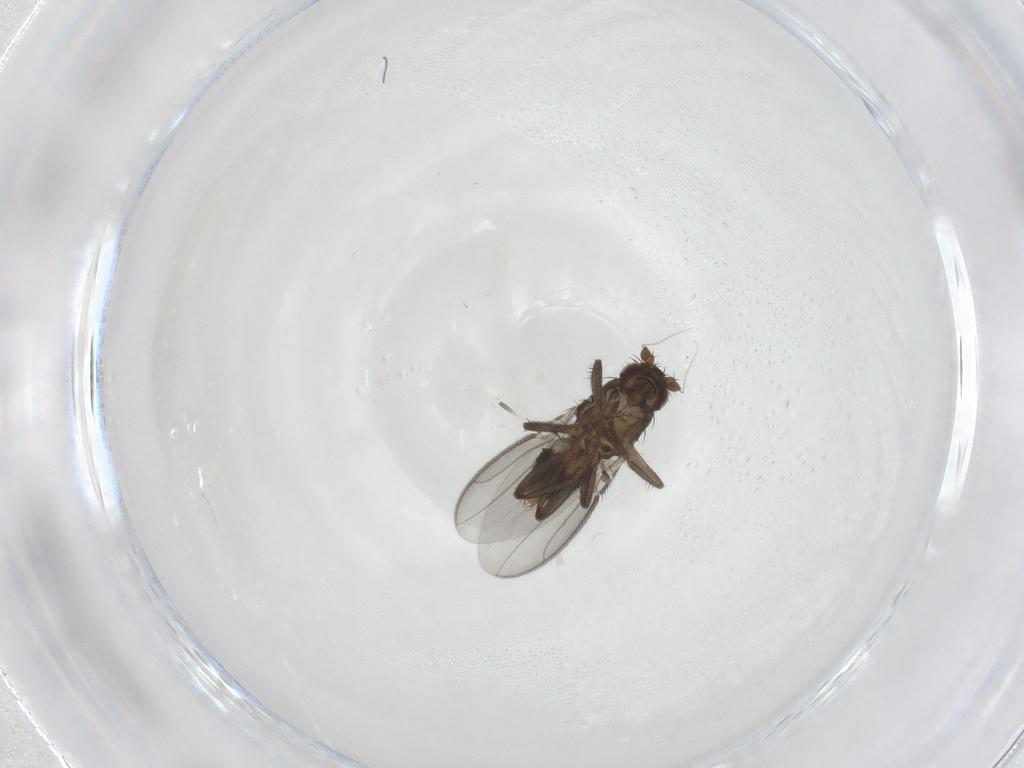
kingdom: Animalia
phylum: Arthropoda
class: Insecta
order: Diptera
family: Sphaeroceridae
